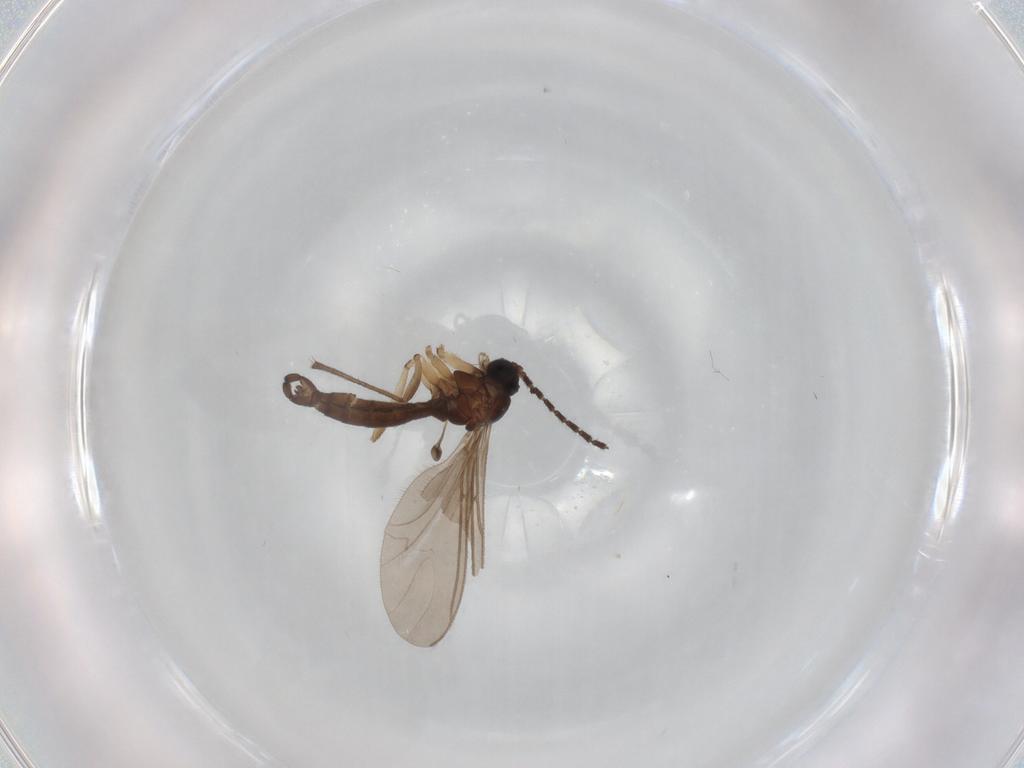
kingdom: Animalia
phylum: Arthropoda
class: Insecta
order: Diptera
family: Sciaridae
